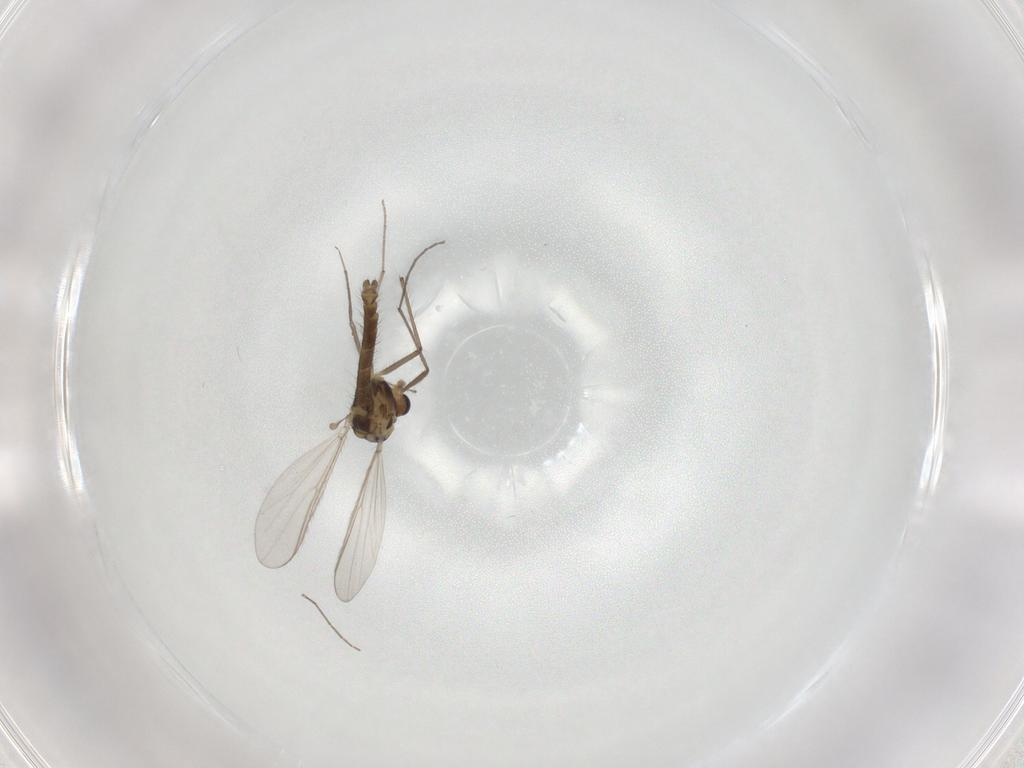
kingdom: Animalia
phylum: Arthropoda
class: Insecta
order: Diptera
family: Chironomidae
